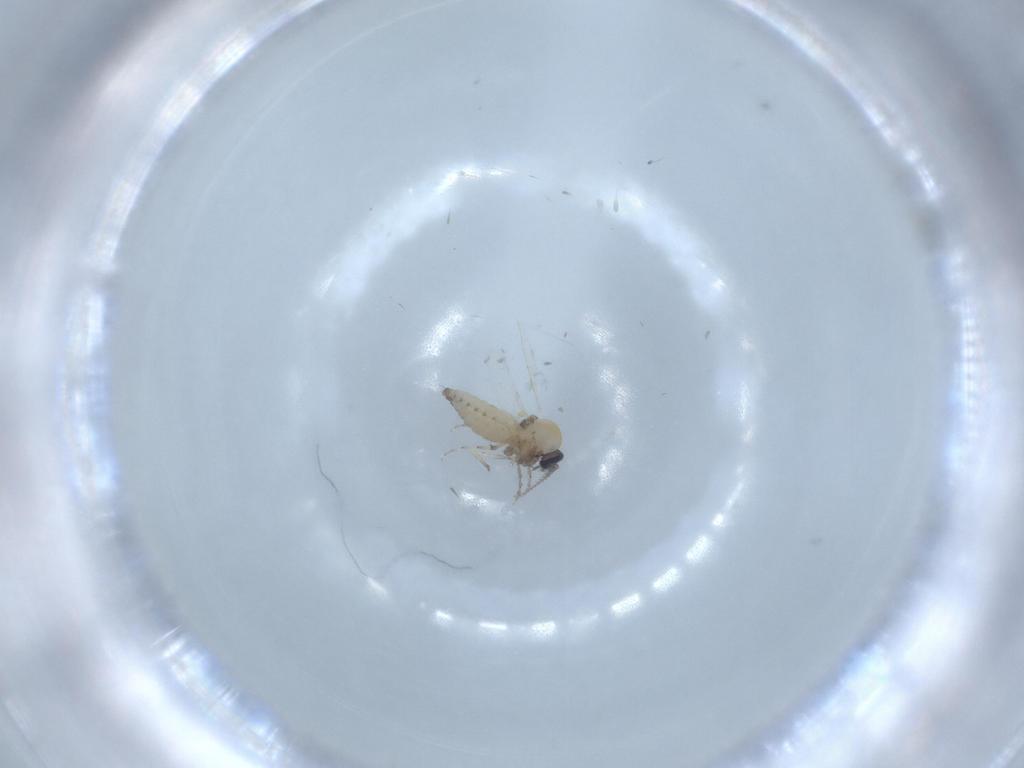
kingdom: Animalia
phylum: Arthropoda
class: Insecta
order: Diptera
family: Ceratopogonidae
